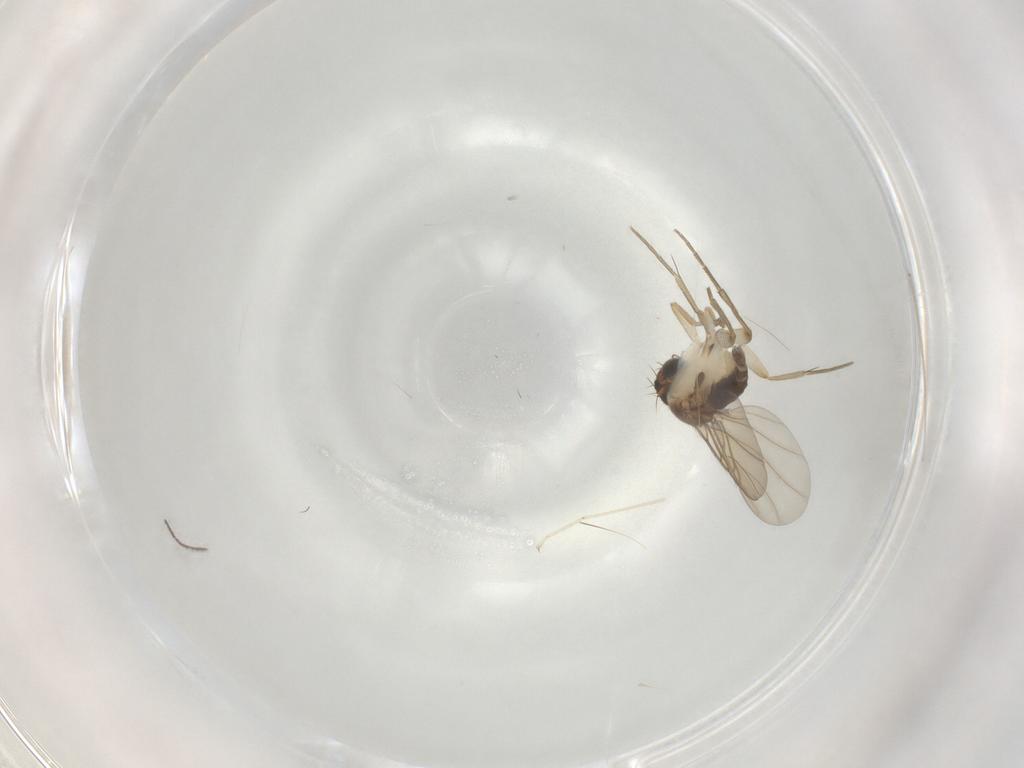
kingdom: Animalia
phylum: Arthropoda
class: Insecta
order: Diptera
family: Phoridae
